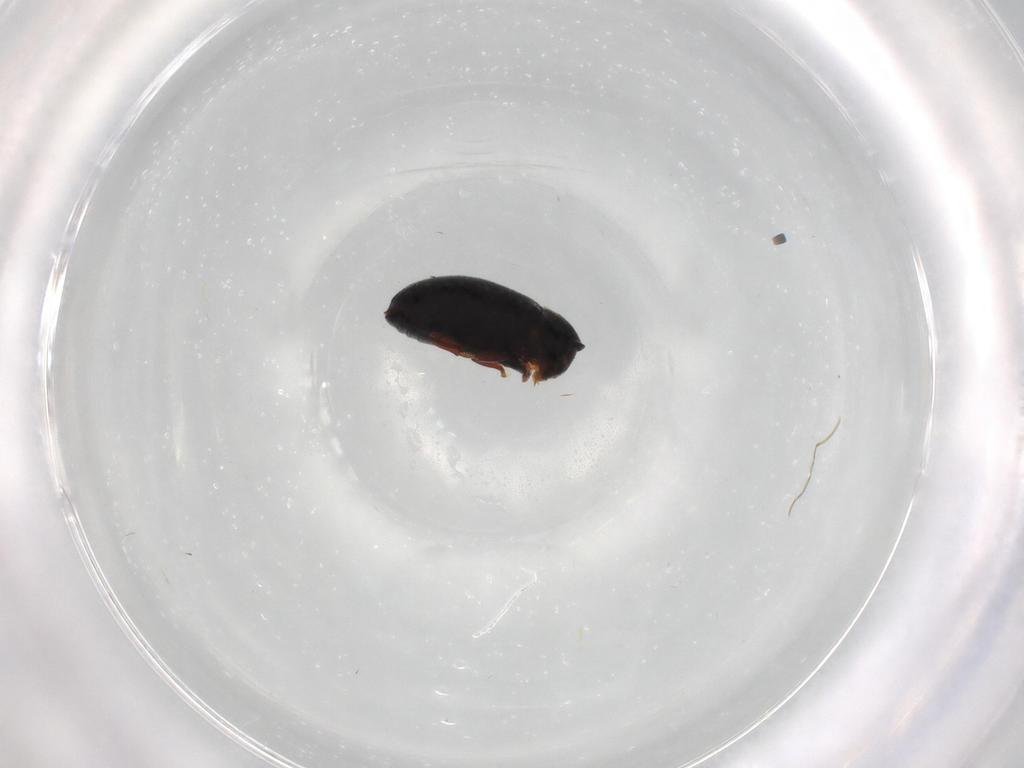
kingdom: Animalia
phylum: Arthropoda
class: Insecta
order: Coleoptera
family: Ptinidae
